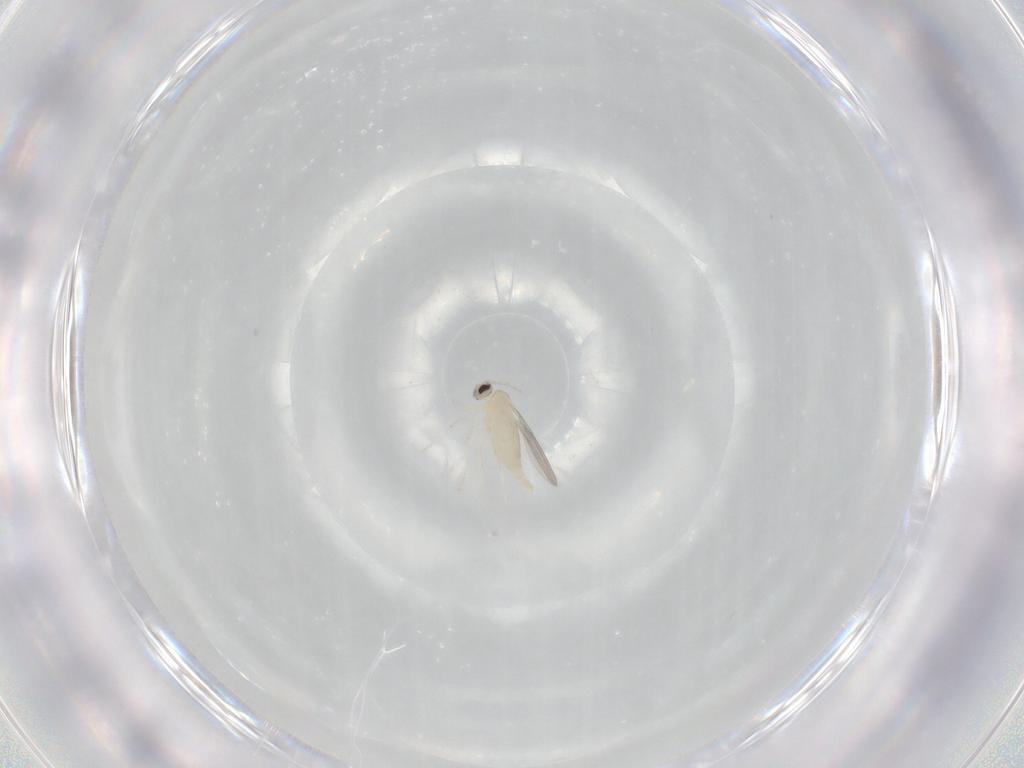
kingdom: Animalia
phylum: Arthropoda
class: Insecta
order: Diptera
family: Cecidomyiidae
